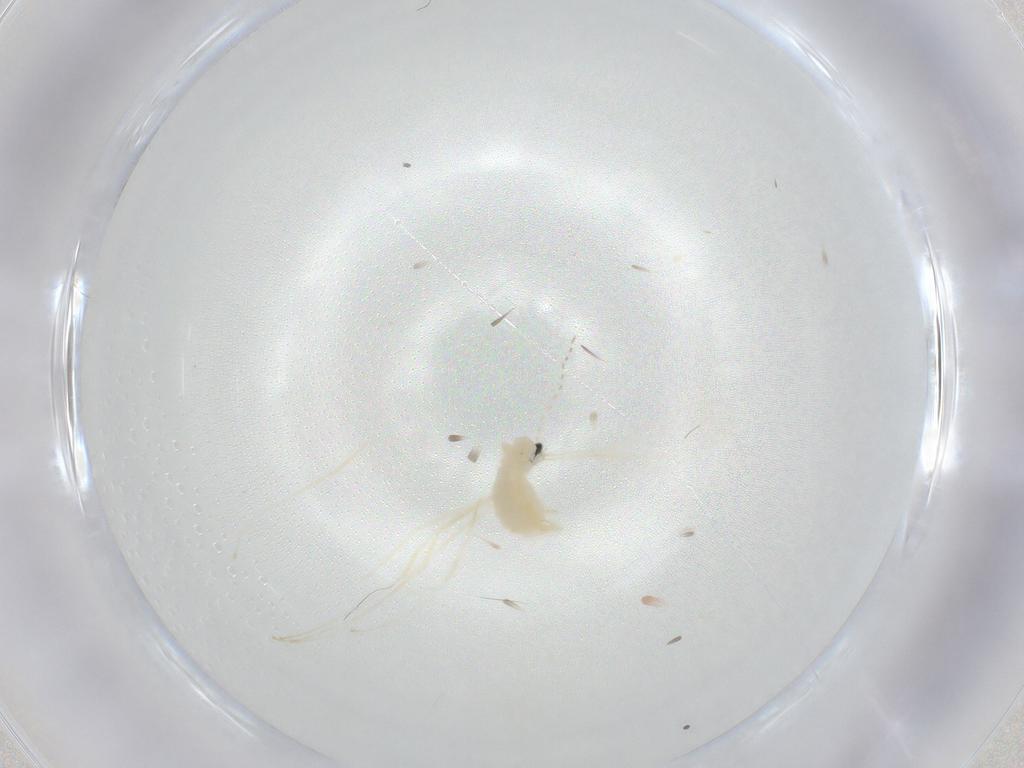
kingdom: Animalia
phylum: Arthropoda
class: Insecta
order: Diptera
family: Cecidomyiidae
